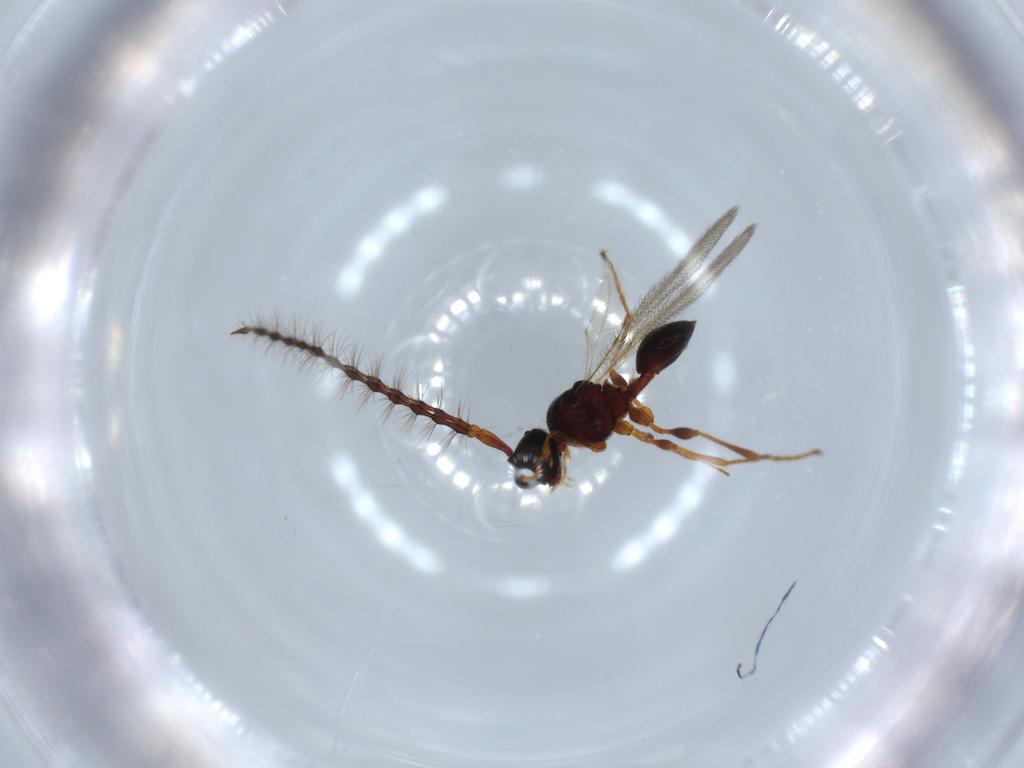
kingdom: Animalia
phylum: Arthropoda
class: Insecta
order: Hymenoptera
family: Diapriidae
